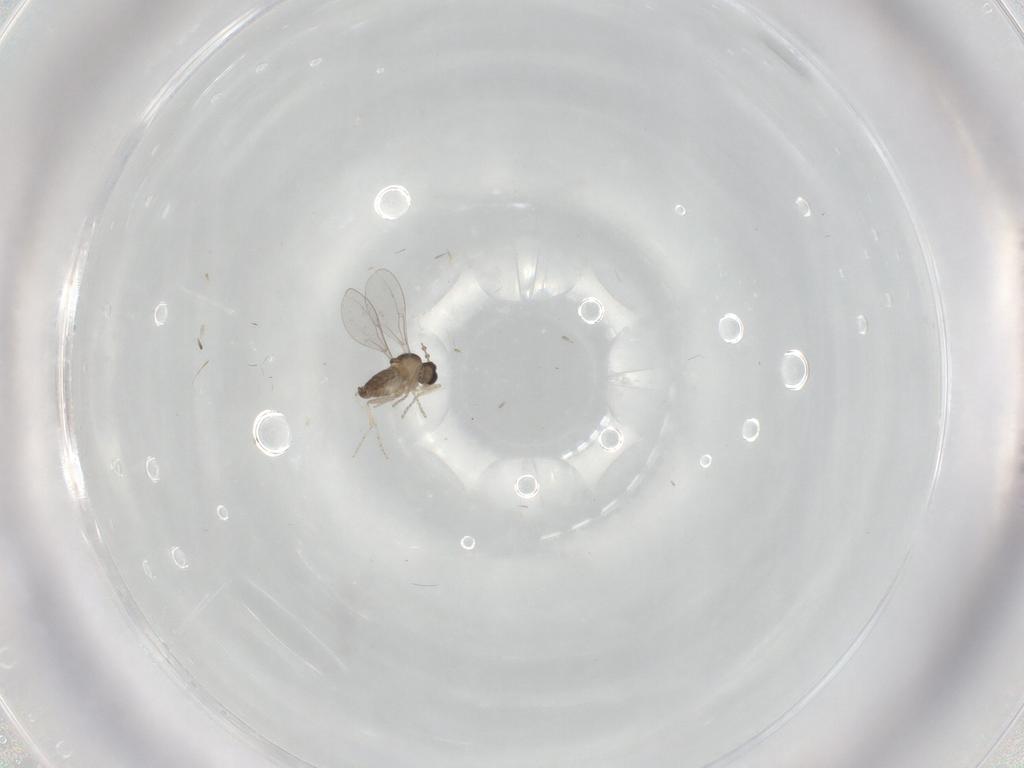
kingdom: Animalia
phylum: Arthropoda
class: Insecta
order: Diptera
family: Cecidomyiidae
